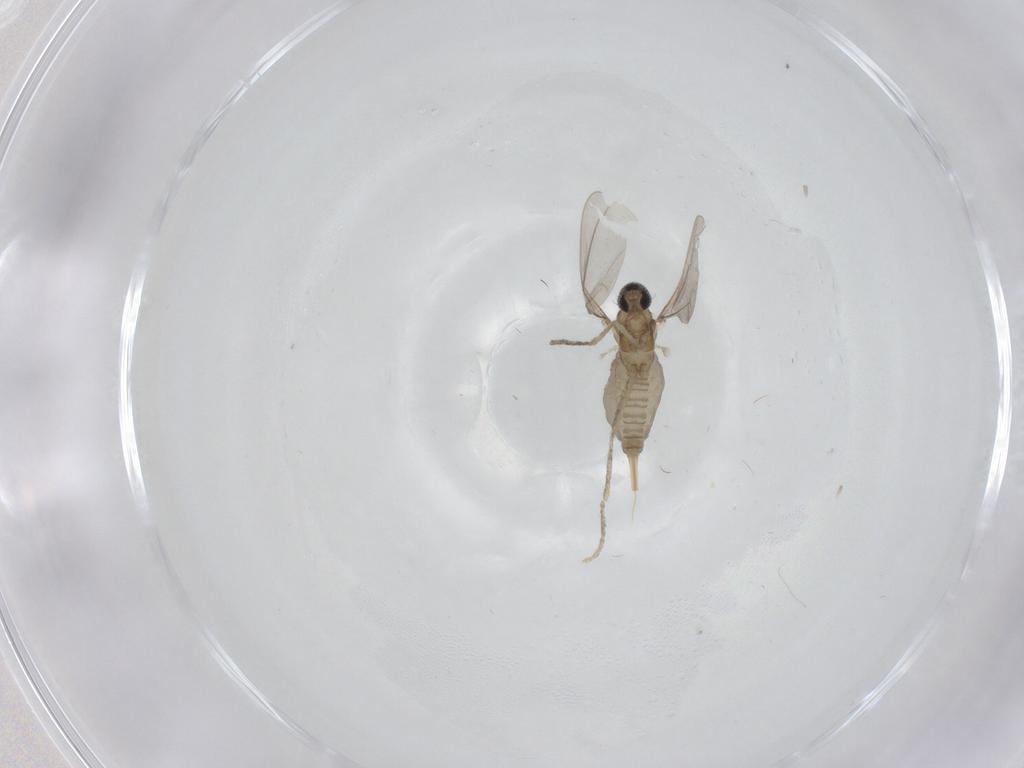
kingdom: Animalia
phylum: Arthropoda
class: Insecta
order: Diptera
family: Cecidomyiidae
